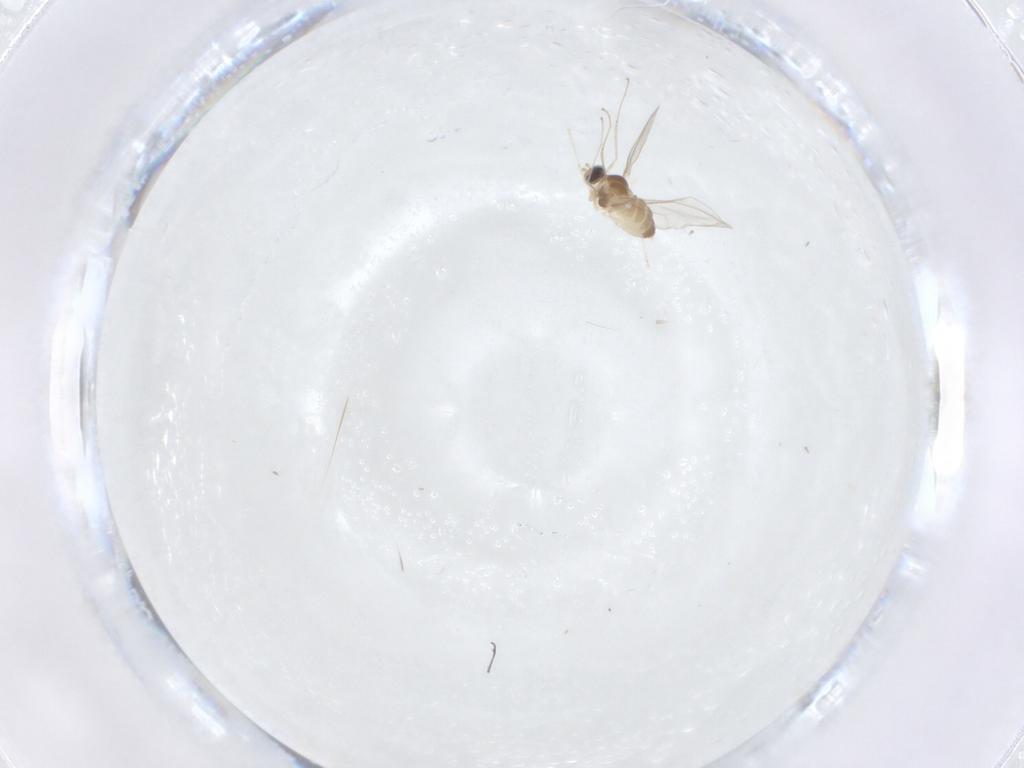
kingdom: Animalia
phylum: Arthropoda
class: Insecta
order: Diptera
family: Cecidomyiidae
